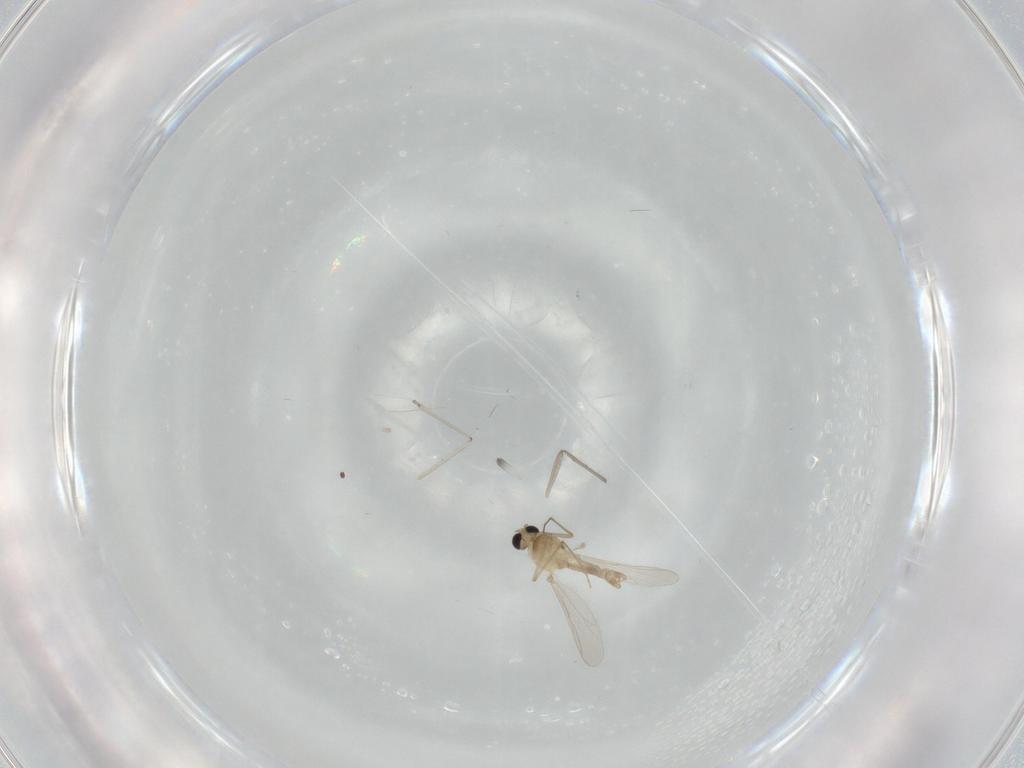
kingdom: Animalia
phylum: Arthropoda
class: Insecta
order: Diptera
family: Chironomidae
